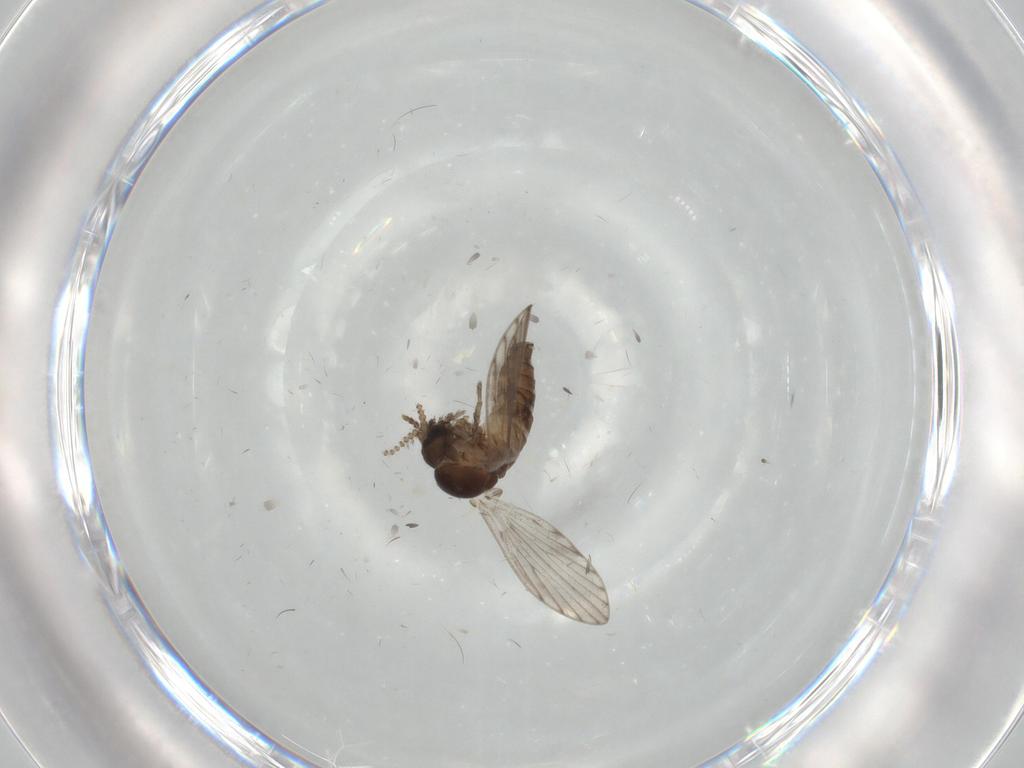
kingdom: Animalia
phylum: Arthropoda
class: Insecta
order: Diptera
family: Psychodidae
